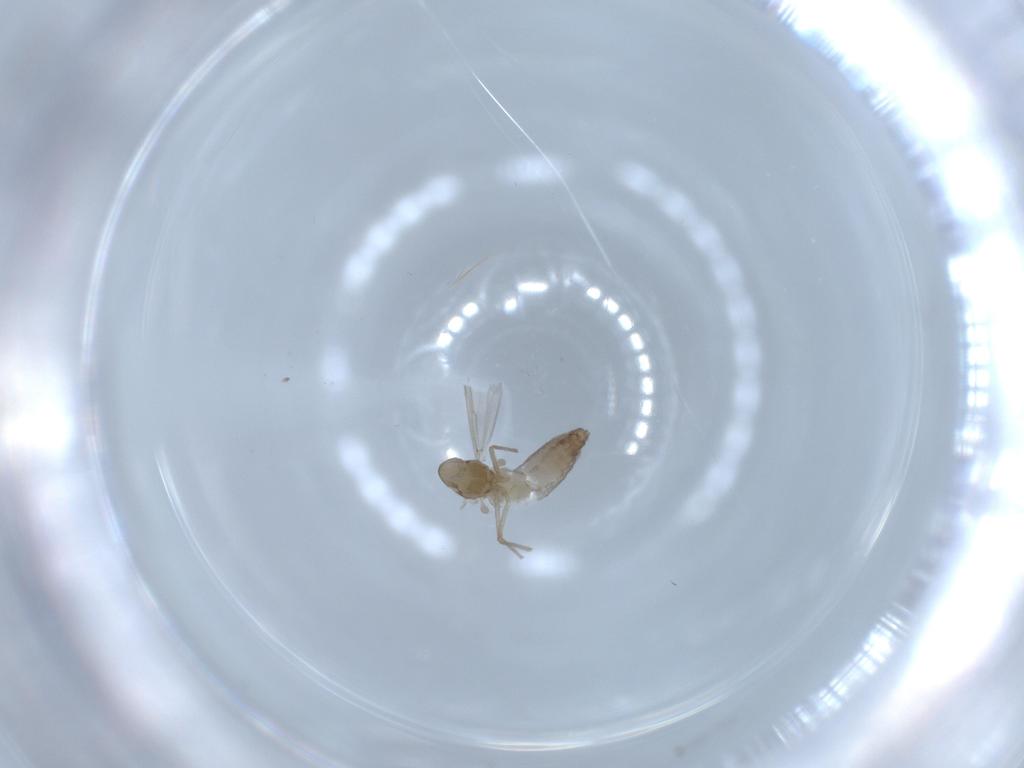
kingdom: Animalia
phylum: Arthropoda
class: Insecta
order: Diptera
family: Chironomidae
